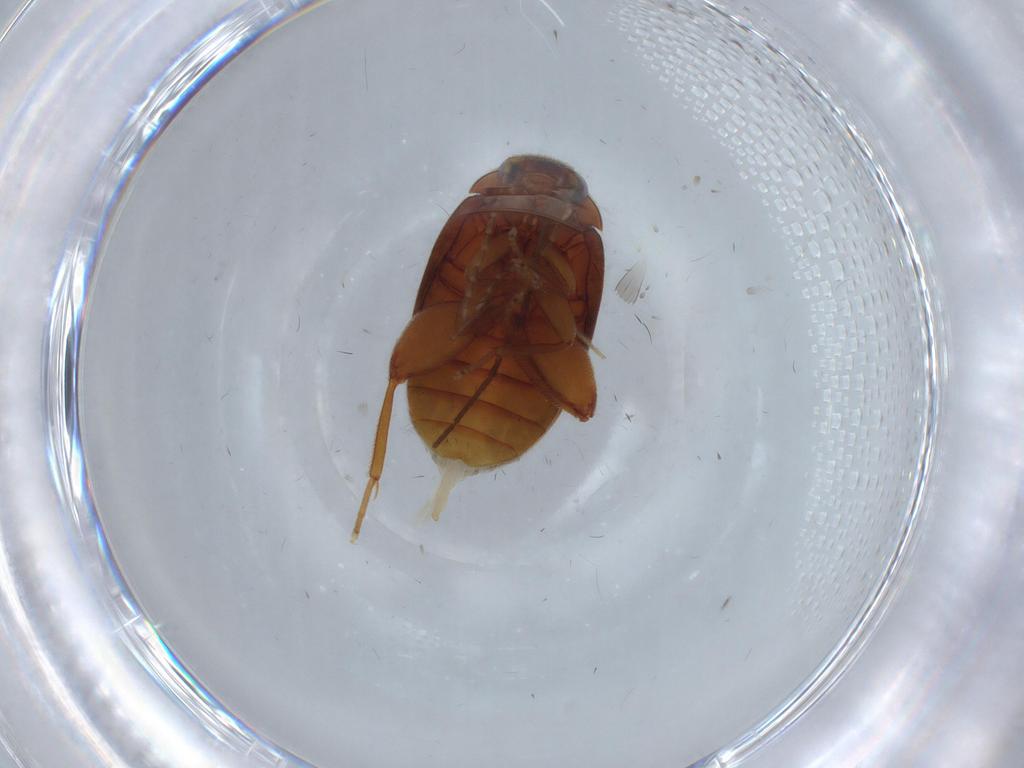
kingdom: Animalia
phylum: Arthropoda
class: Insecta
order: Coleoptera
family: Scirtidae
